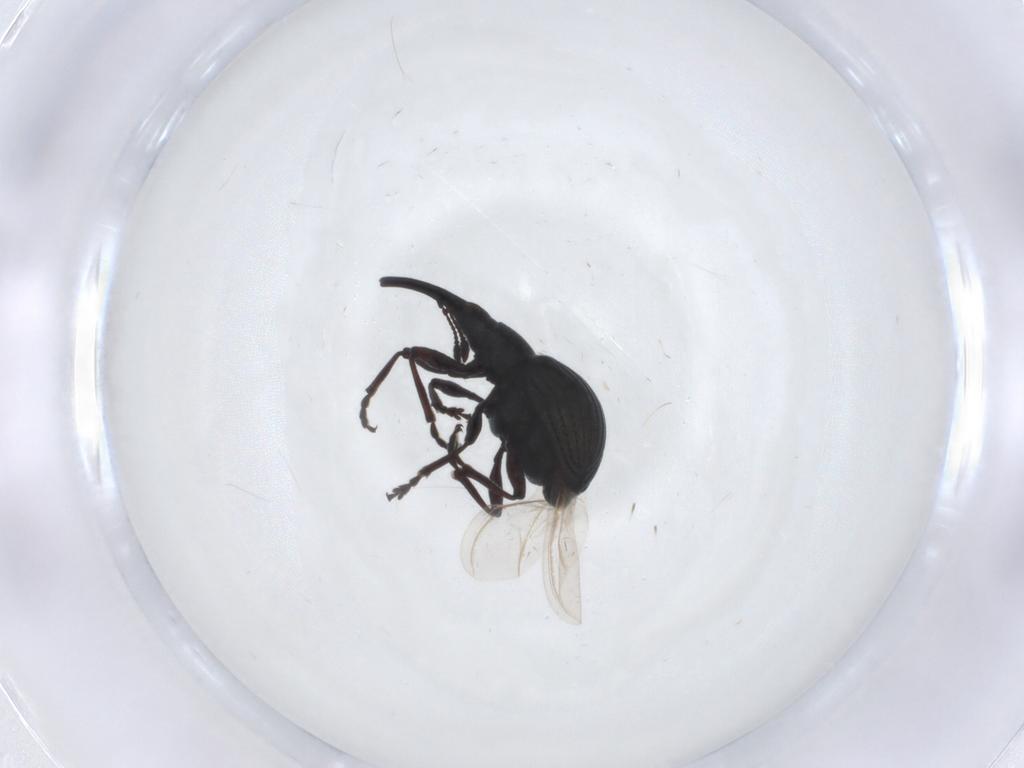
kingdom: Animalia
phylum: Arthropoda
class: Insecta
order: Coleoptera
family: Brentidae
